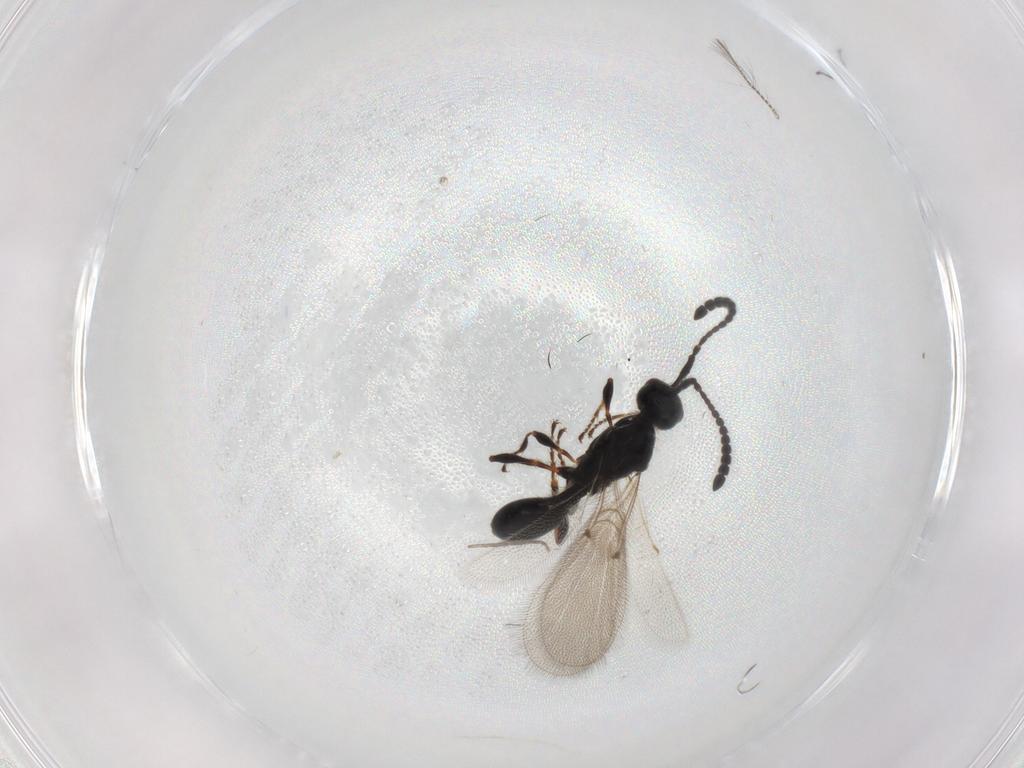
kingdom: Animalia
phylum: Arthropoda
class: Insecta
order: Hymenoptera
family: Diapriidae
